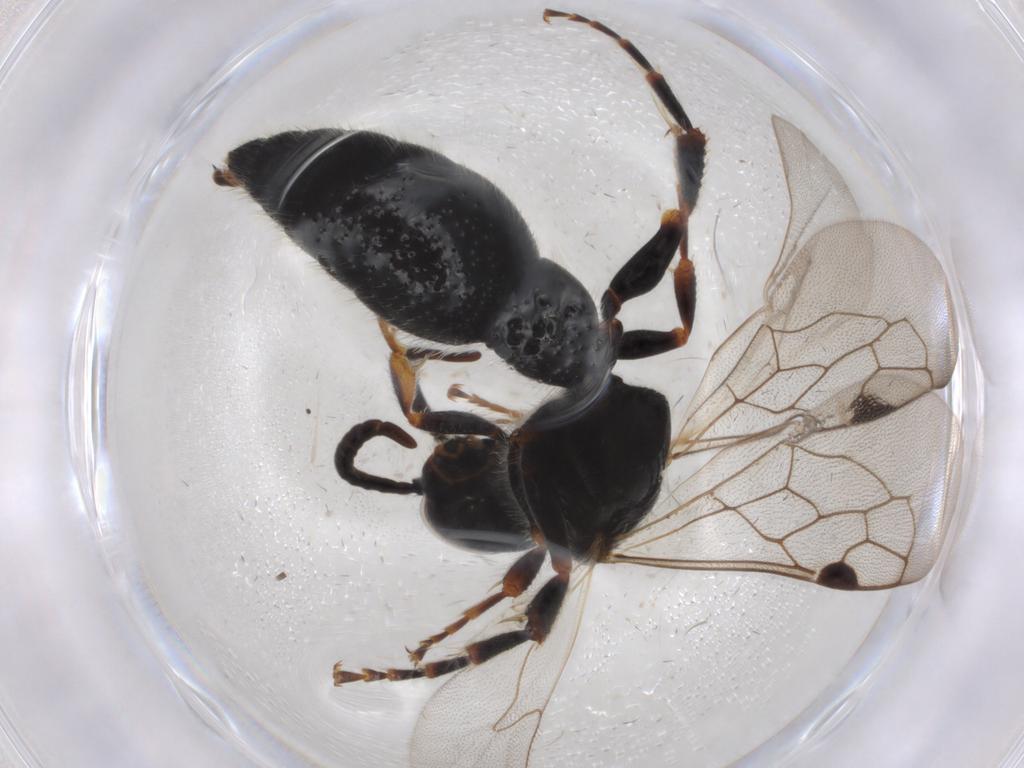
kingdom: Animalia
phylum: Arthropoda
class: Insecta
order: Hymenoptera
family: Tiphiidae
